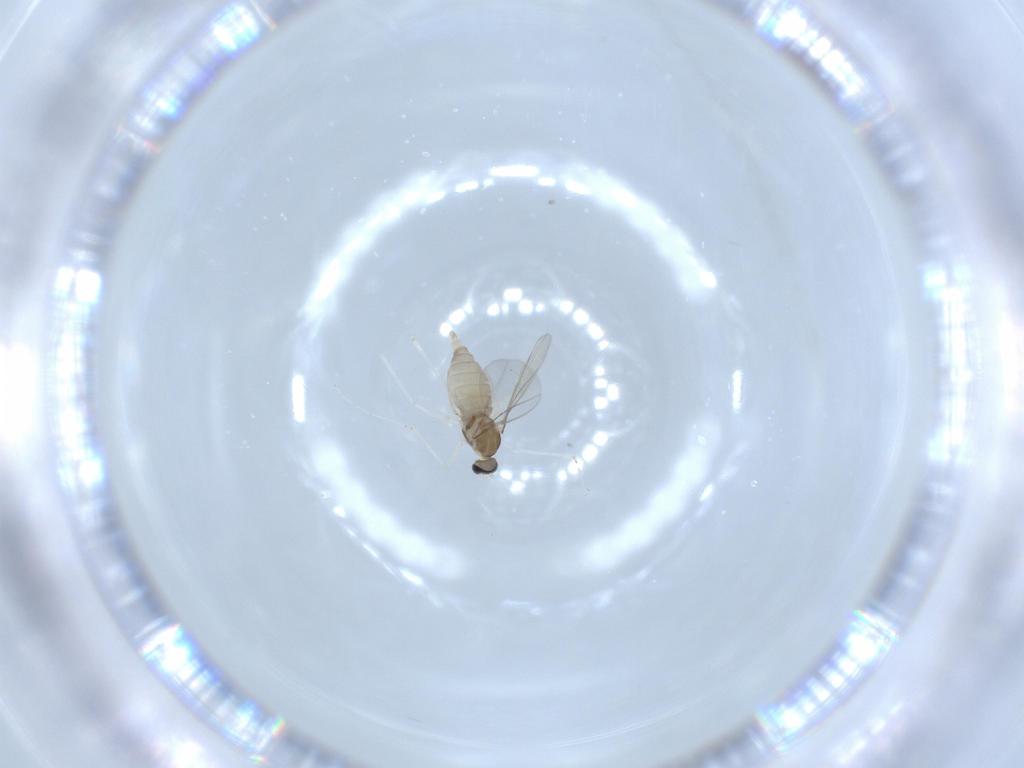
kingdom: Animalia
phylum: Arthropoda
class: Insecta
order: Diptera
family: Cecidomyiidae
